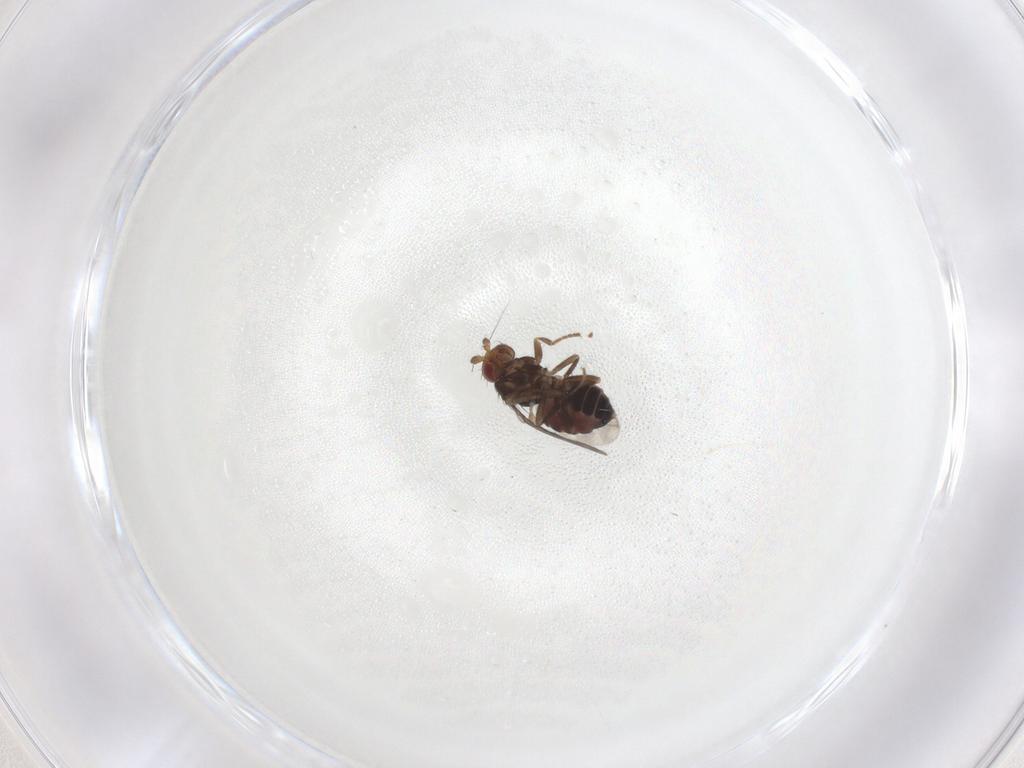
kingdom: Animalia
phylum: Arthropoda
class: Insecta
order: Diptera
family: Sphaeroceridae
